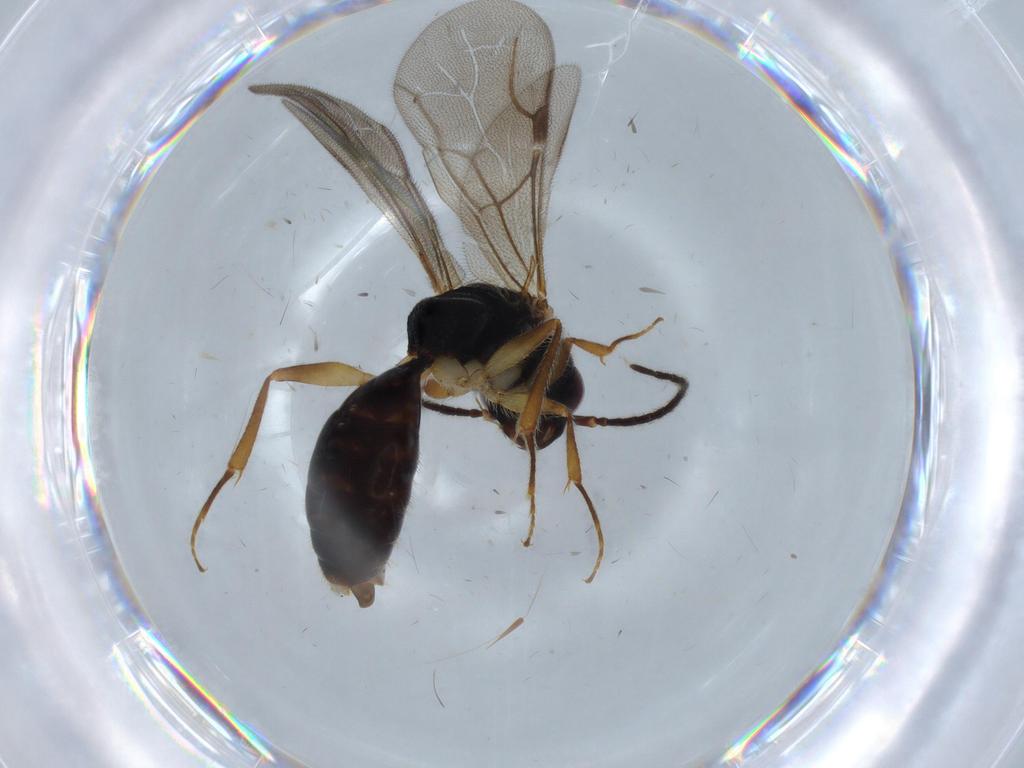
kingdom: Animalia
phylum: Arthropoda
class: Insecta
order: Hymenoptera
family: Bethylidae
